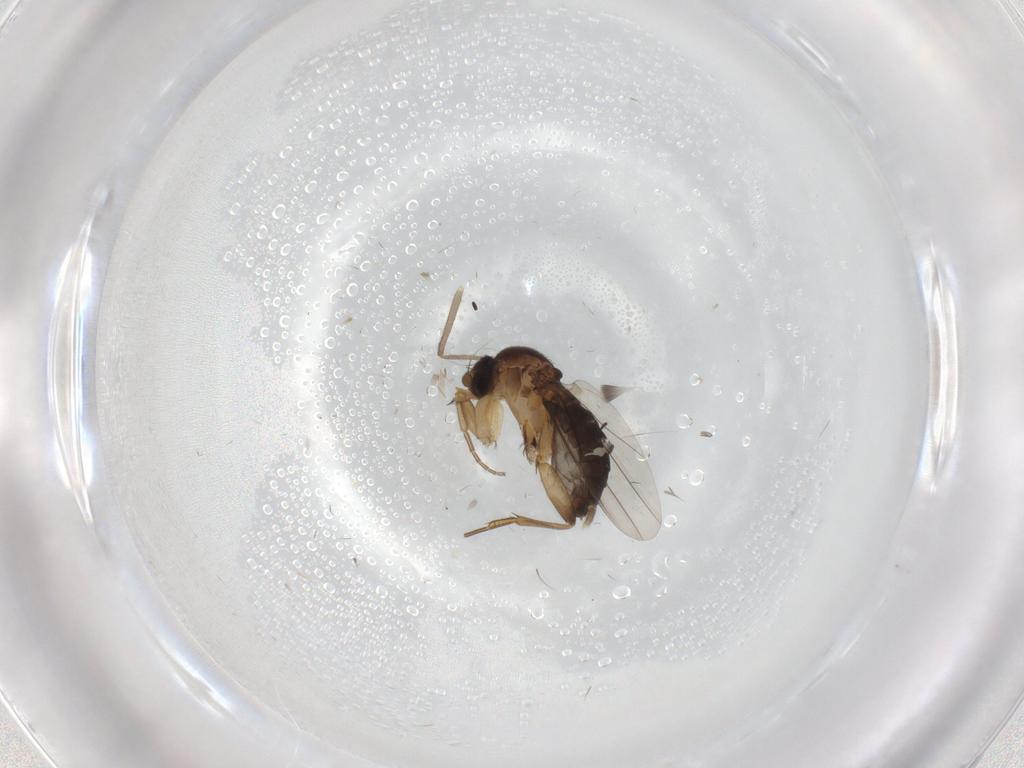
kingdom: Animalia
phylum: Arthropoda
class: Insecta
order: Diptera
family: Phoridae
